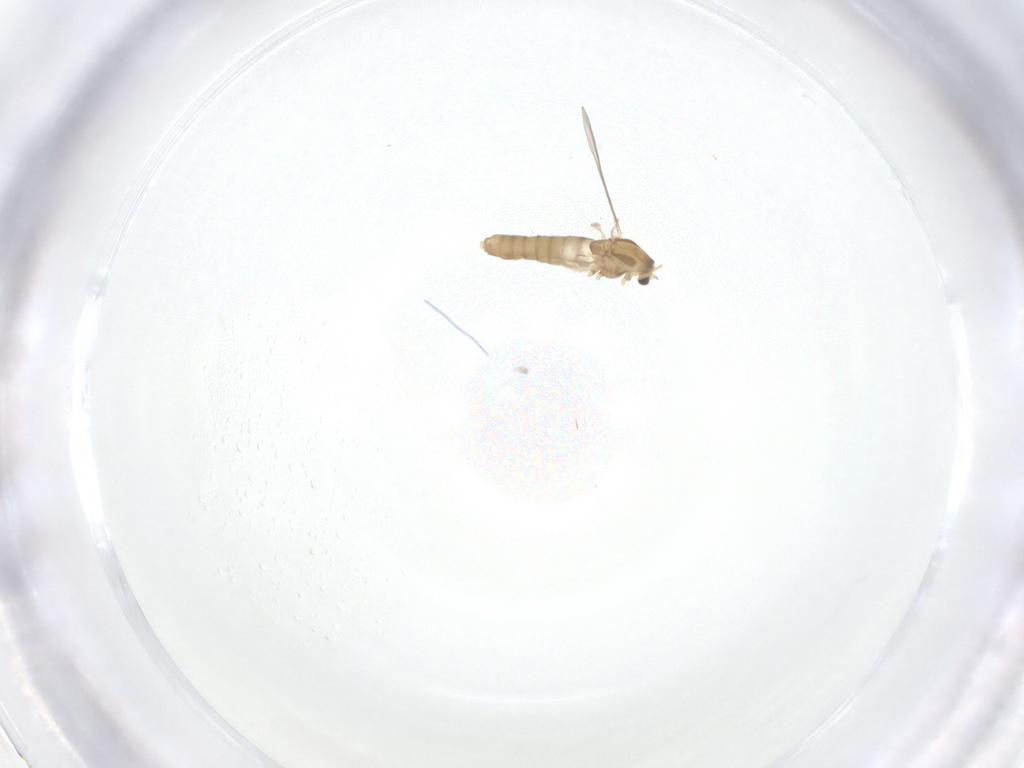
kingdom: Animalia
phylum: Arthropoda
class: Insecta
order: Diptera
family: Chironomidae
